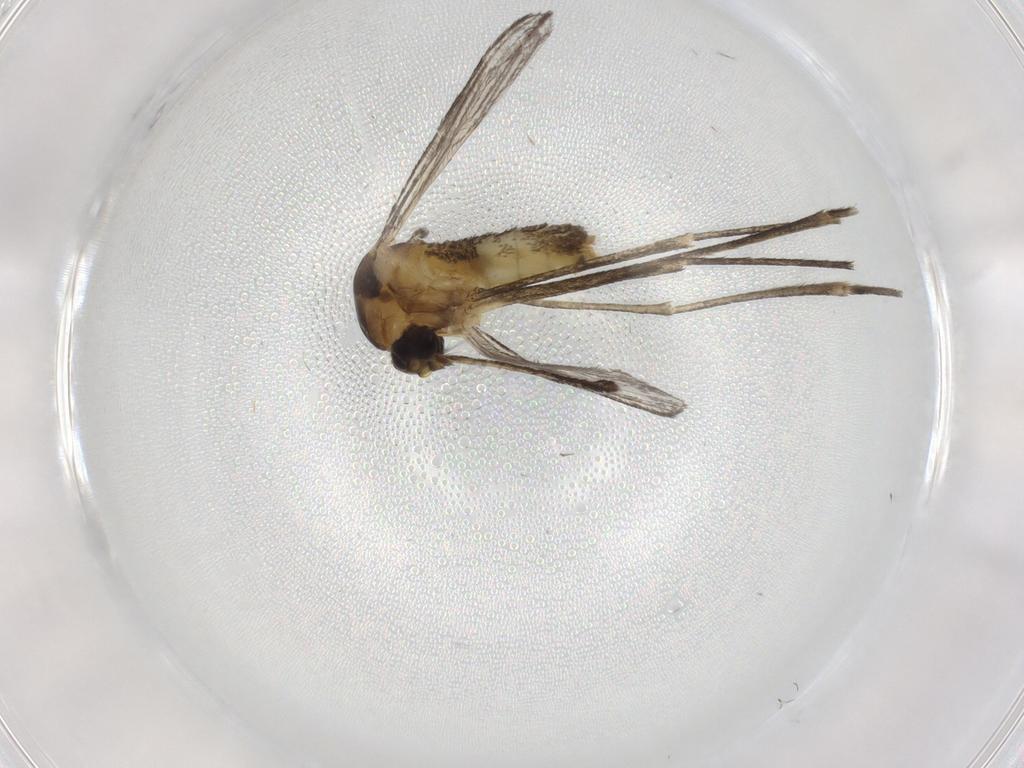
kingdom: Animalia
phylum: Arthropoda
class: Insecta
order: Diptera
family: Culicidae
